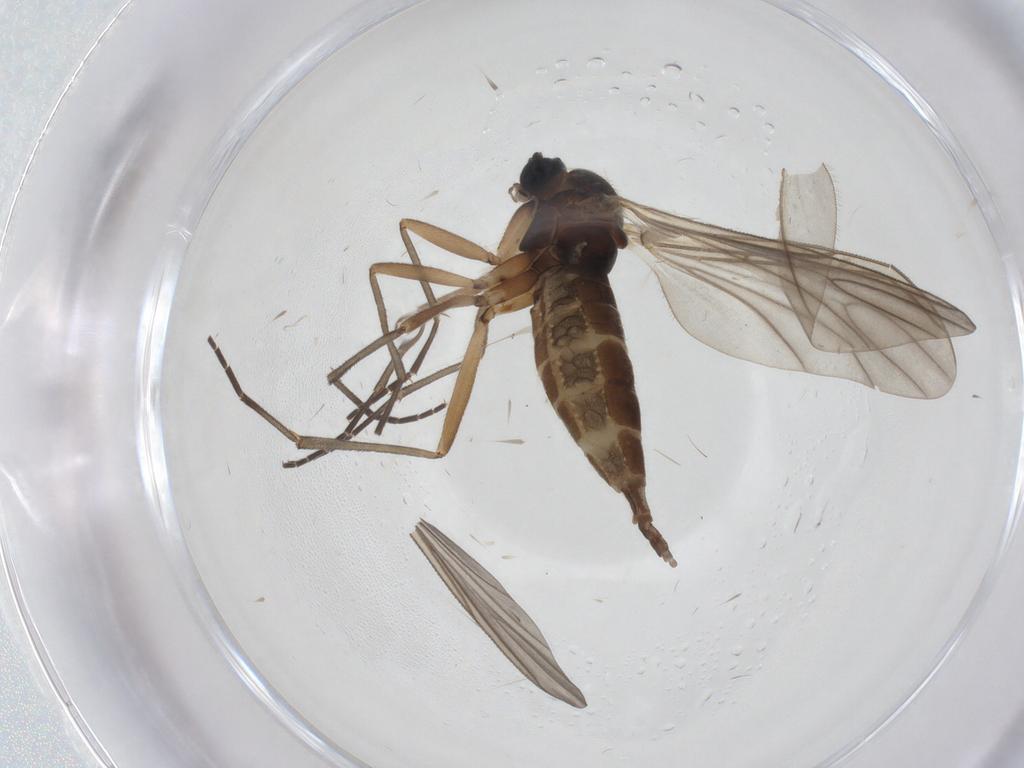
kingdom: Animalia
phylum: Arthropoda
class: Insecta
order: Diptera
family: Sciaridae
